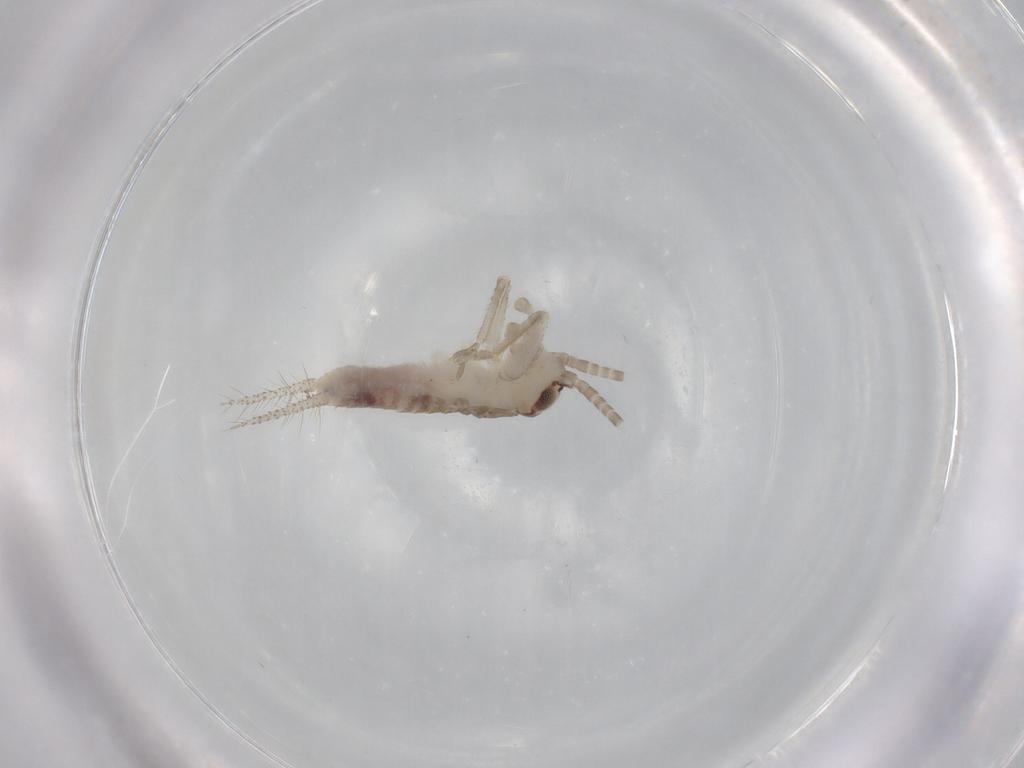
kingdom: Animalia
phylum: Arthropoda
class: Insecta
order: Orthoptera
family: Gryllidae
